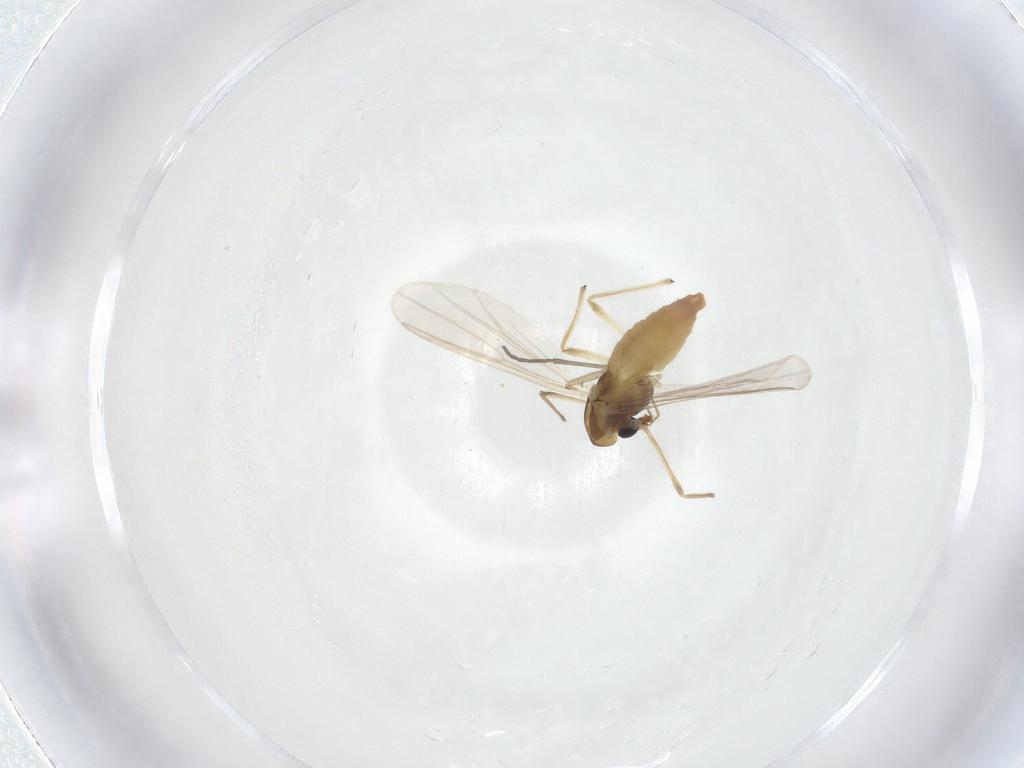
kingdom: Animalia
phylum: Arthropoda
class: Insecta
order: Diptera
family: Chironomidae
